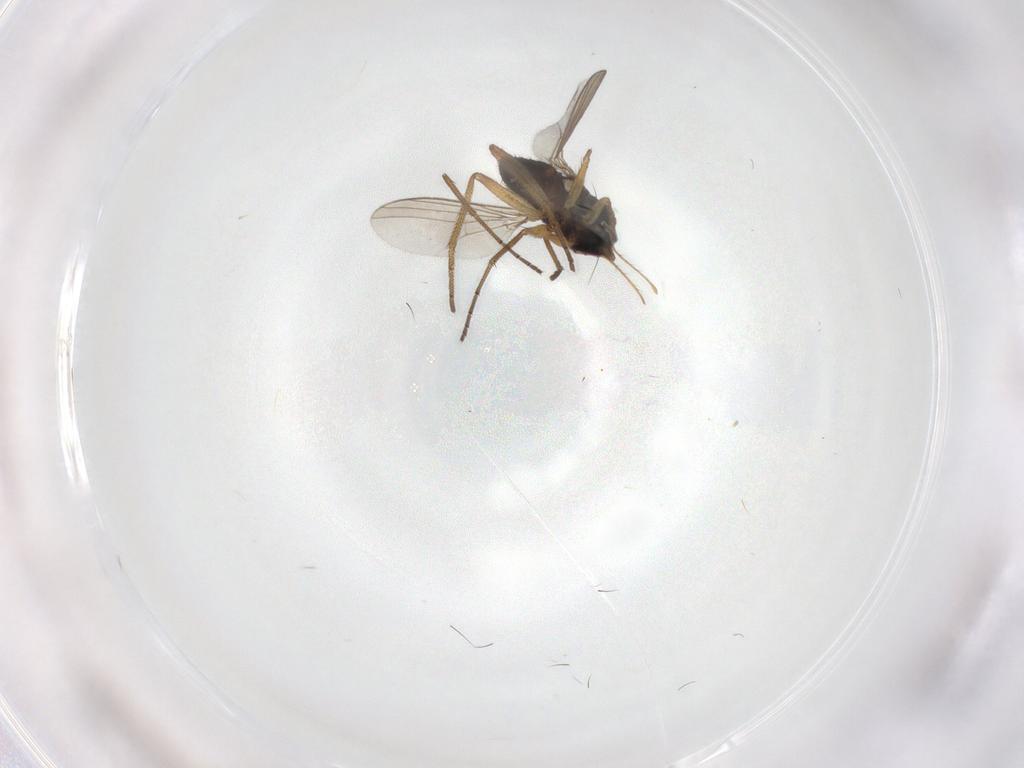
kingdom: Animalia
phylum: Arthropoda
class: Insecta
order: Diptera
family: Dolichopodidae
